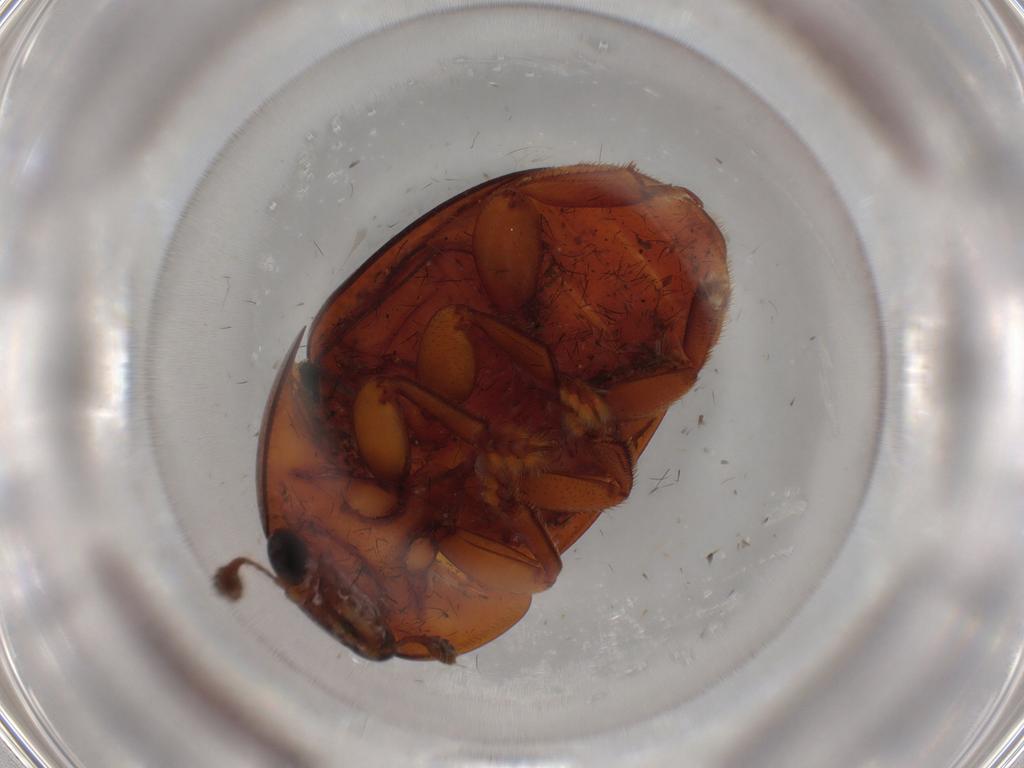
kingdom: Animalia
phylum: Arthropoda
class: Insecta
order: Coleoptera
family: Nitidulidae
